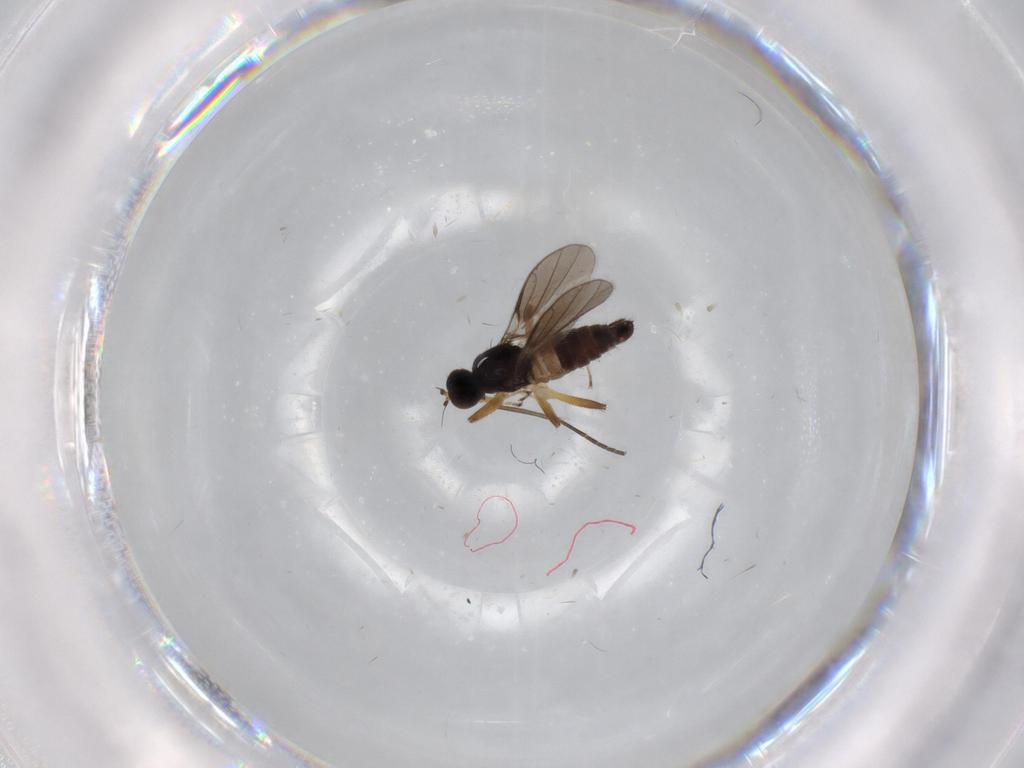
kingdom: Animalia
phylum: Arthropoda
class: Insecta
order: Diptera
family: Hybotidae
